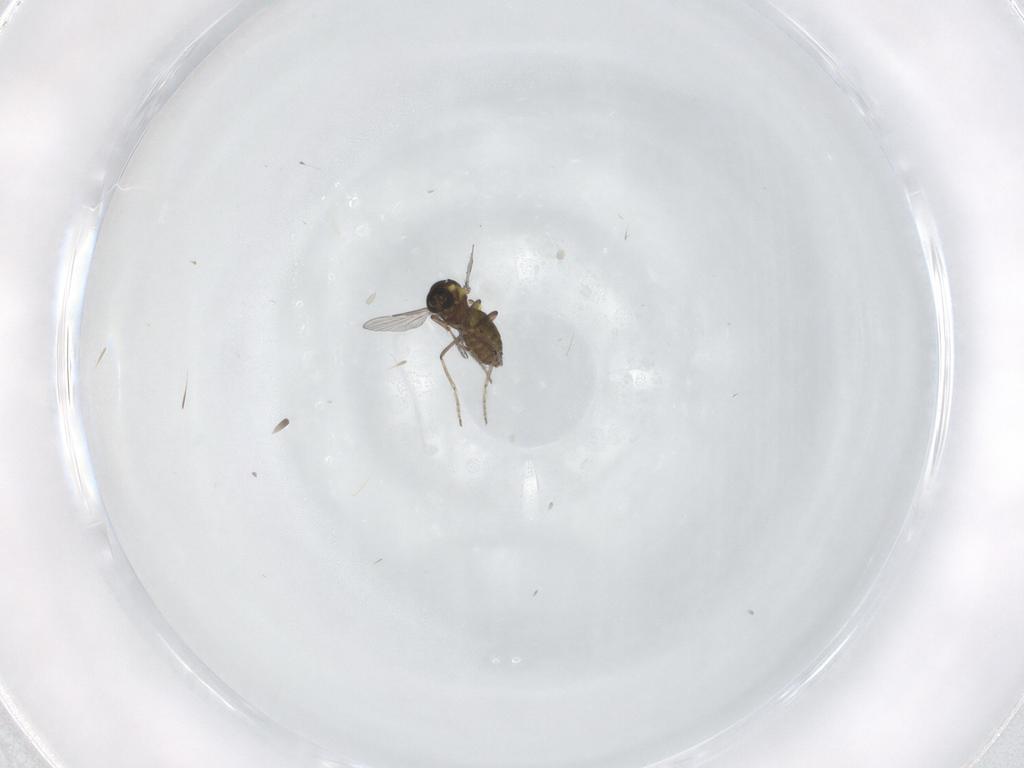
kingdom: Animalia
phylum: Arthropoda
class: Insecta
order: Diptera
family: Ceratopogonidae
